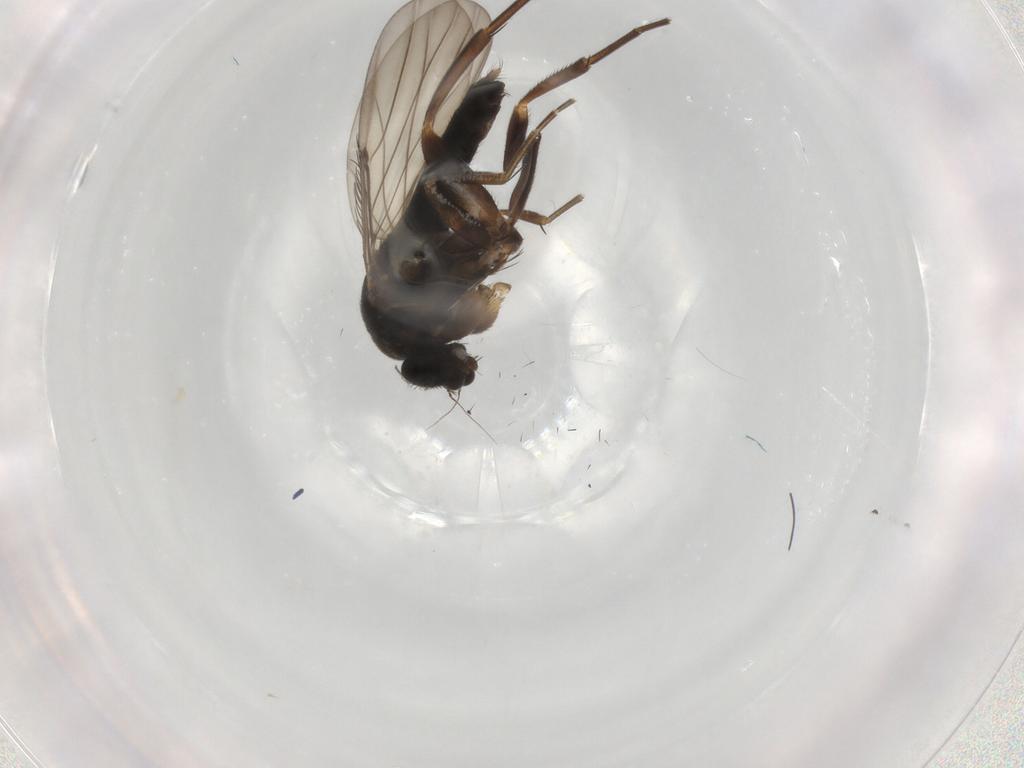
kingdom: Animalia
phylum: Arthropoda
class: Insecta
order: Diptera
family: Phoridae
